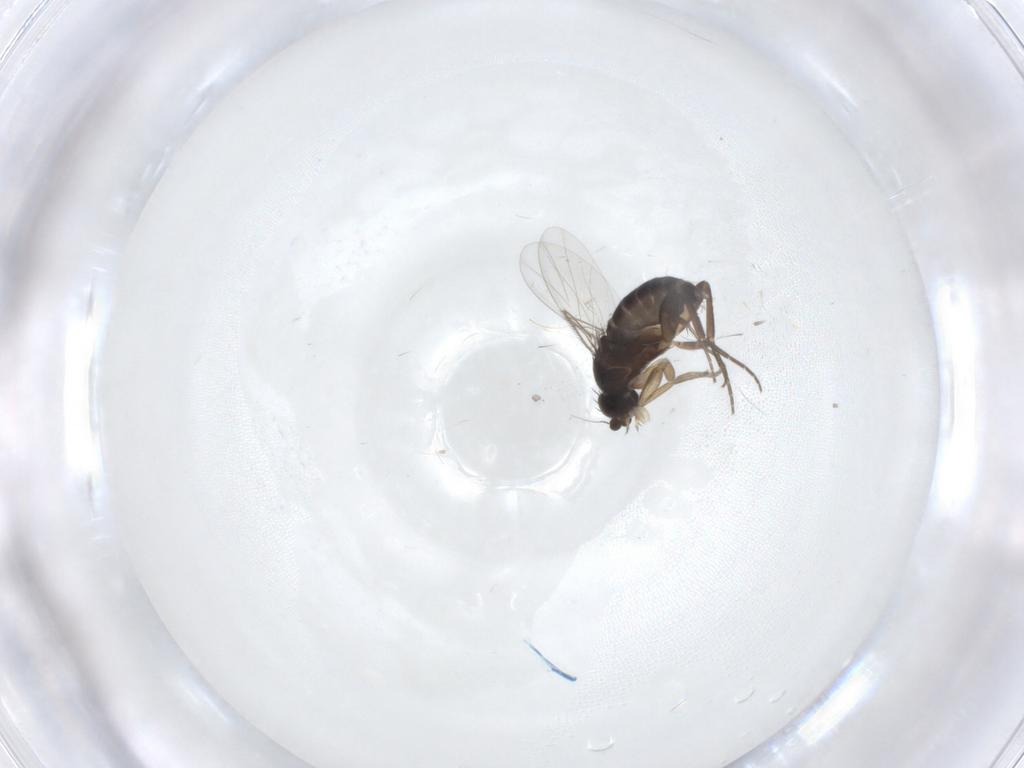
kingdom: Animalia
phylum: Arthropoda
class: Insecta
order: Diptera
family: Phoridae
